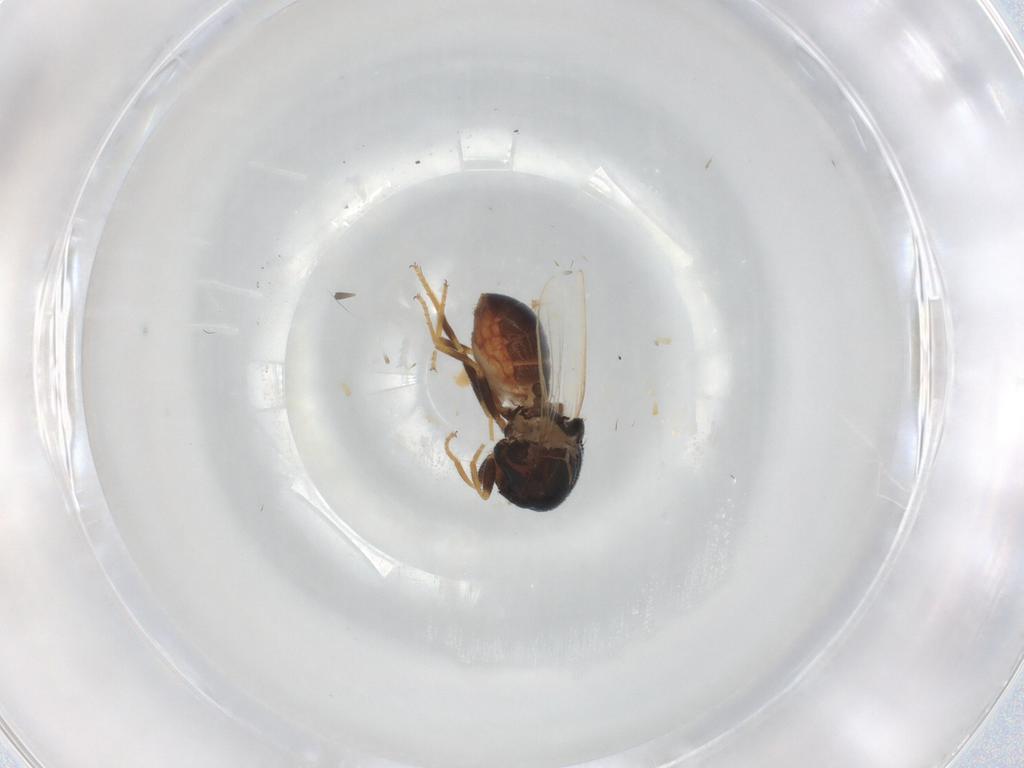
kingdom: Animalia
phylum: Arthropoda
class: Insecta
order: Diptera
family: Chloropidae
